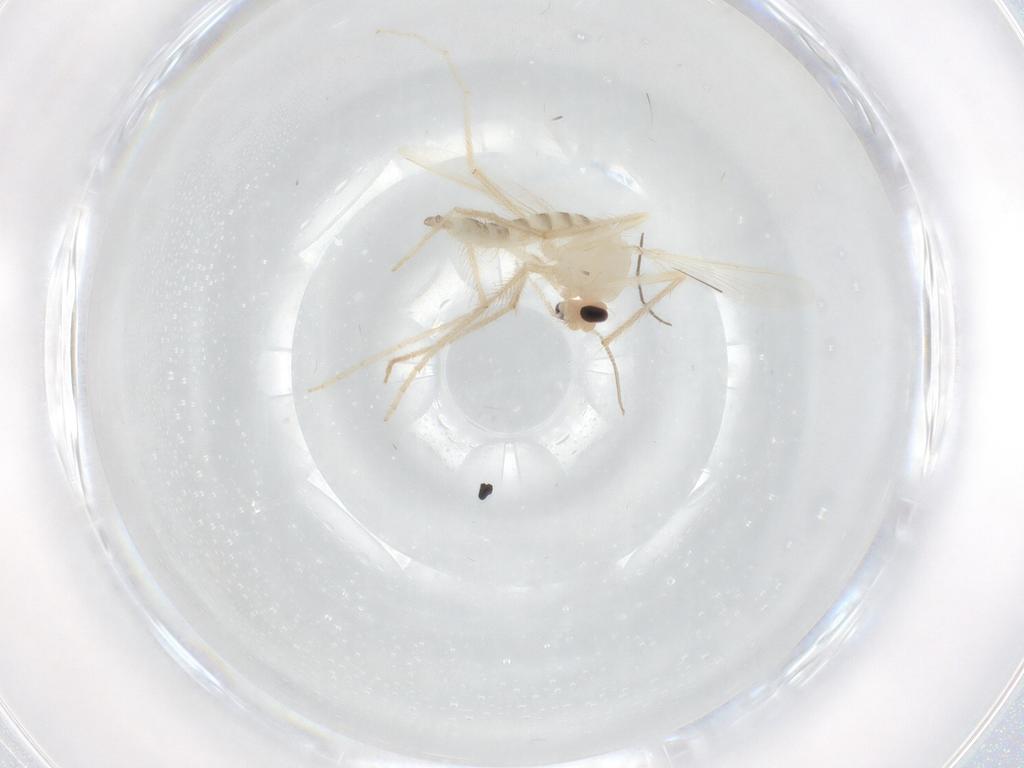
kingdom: Animalia
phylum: Arthropoda
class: Insecta
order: Diptera
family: Chironomidae
